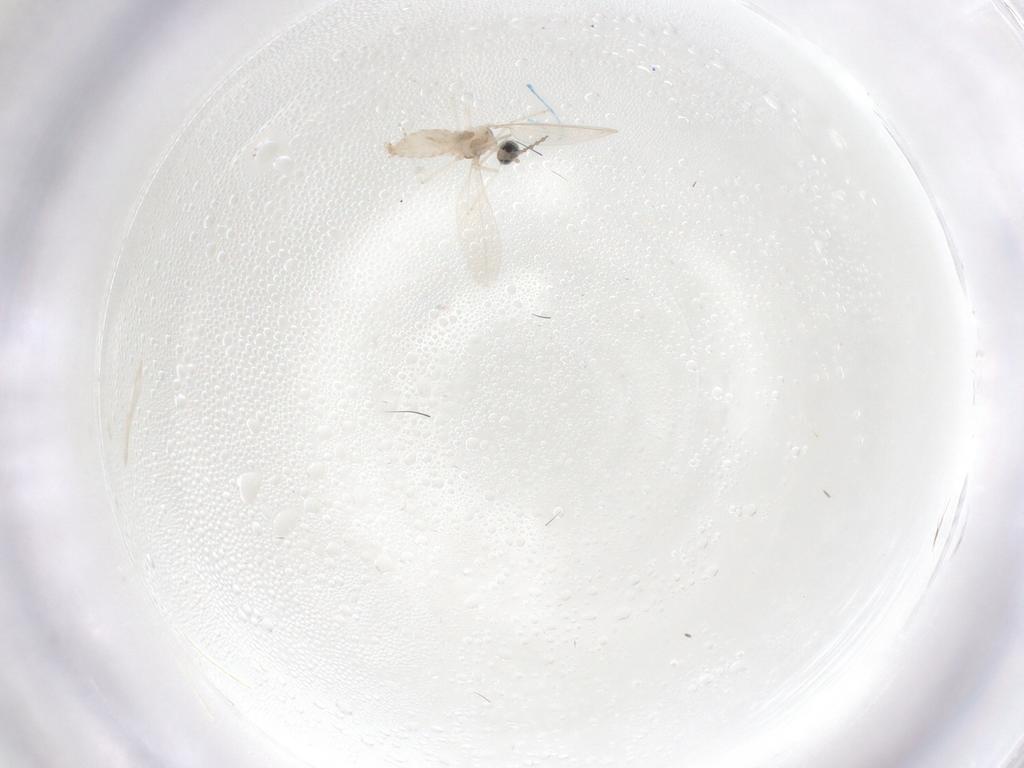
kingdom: Animalia
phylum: Arthropoda
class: Insecta
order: Diptera
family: Cecidomyiidae
